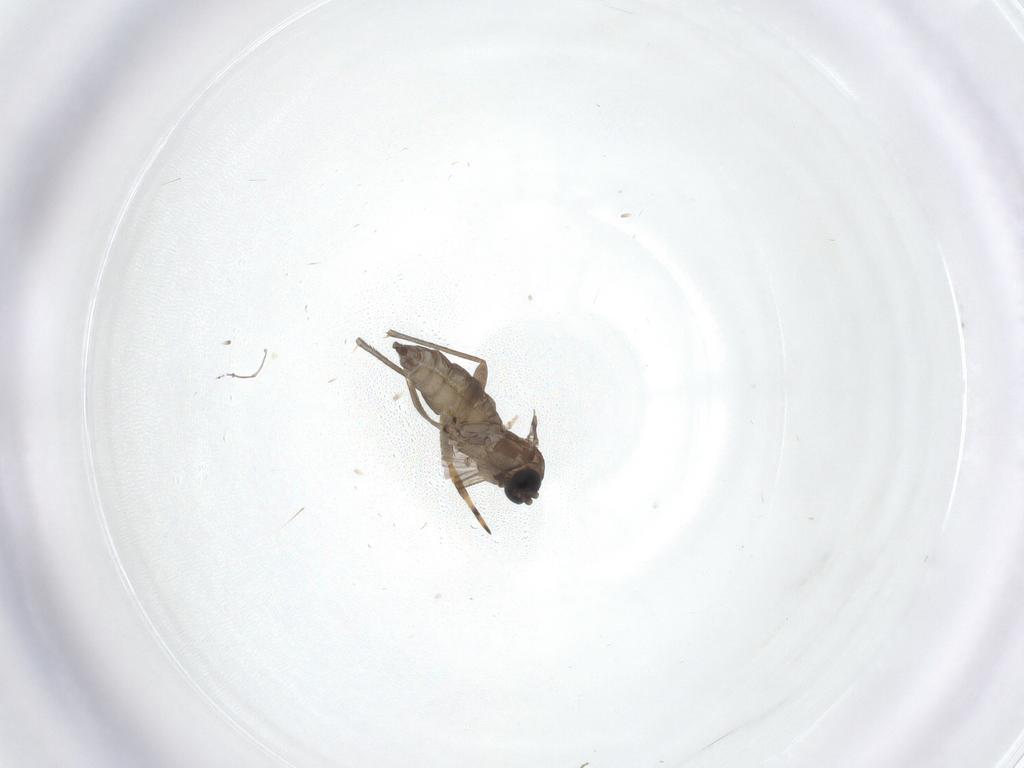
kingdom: Animalia
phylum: Arthropoda
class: Insecta
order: Diptera
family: Sciaridae
